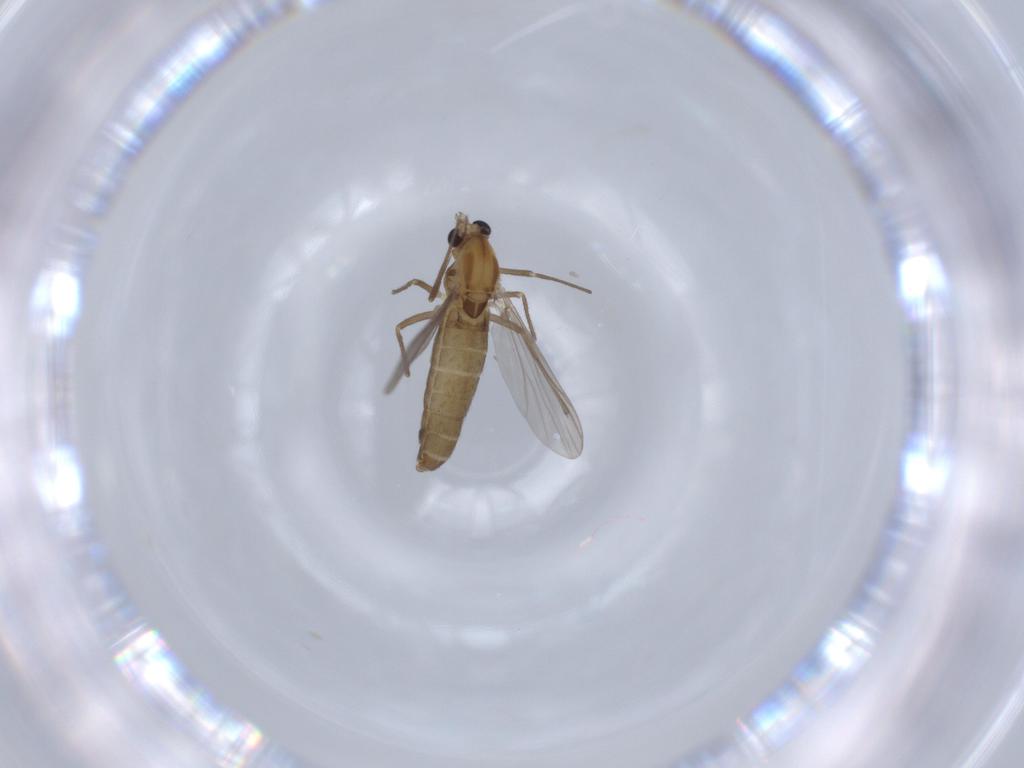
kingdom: Animalia
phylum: Arthropoda
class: Insecta
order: Diptera
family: Chironomidae
